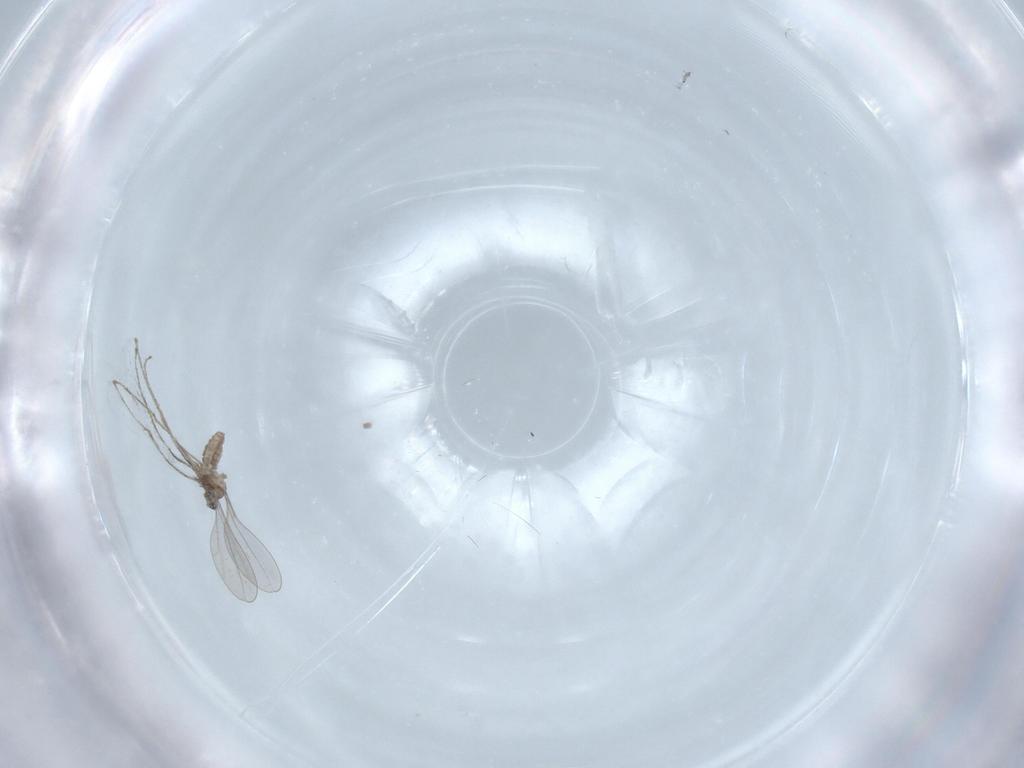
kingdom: Animalia
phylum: Arthropoda
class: Insecta
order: Diptera
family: Cecidomyiidae
